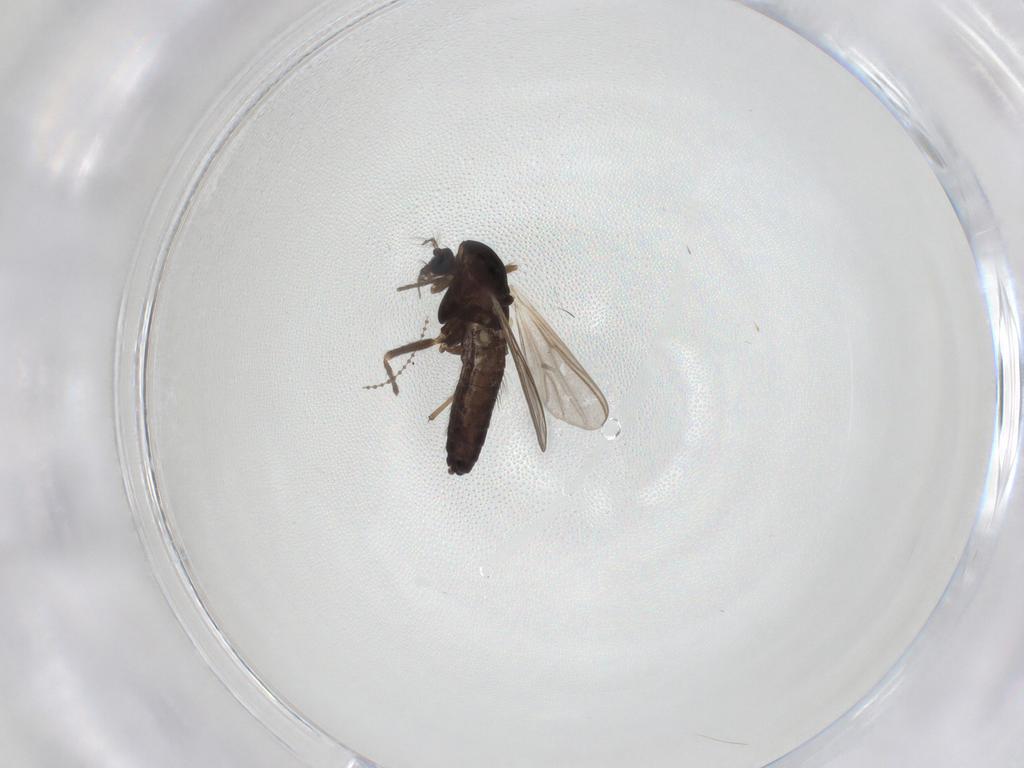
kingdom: Animalia
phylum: Arthropoda
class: Insecta
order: Diptera
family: Chironomidae
